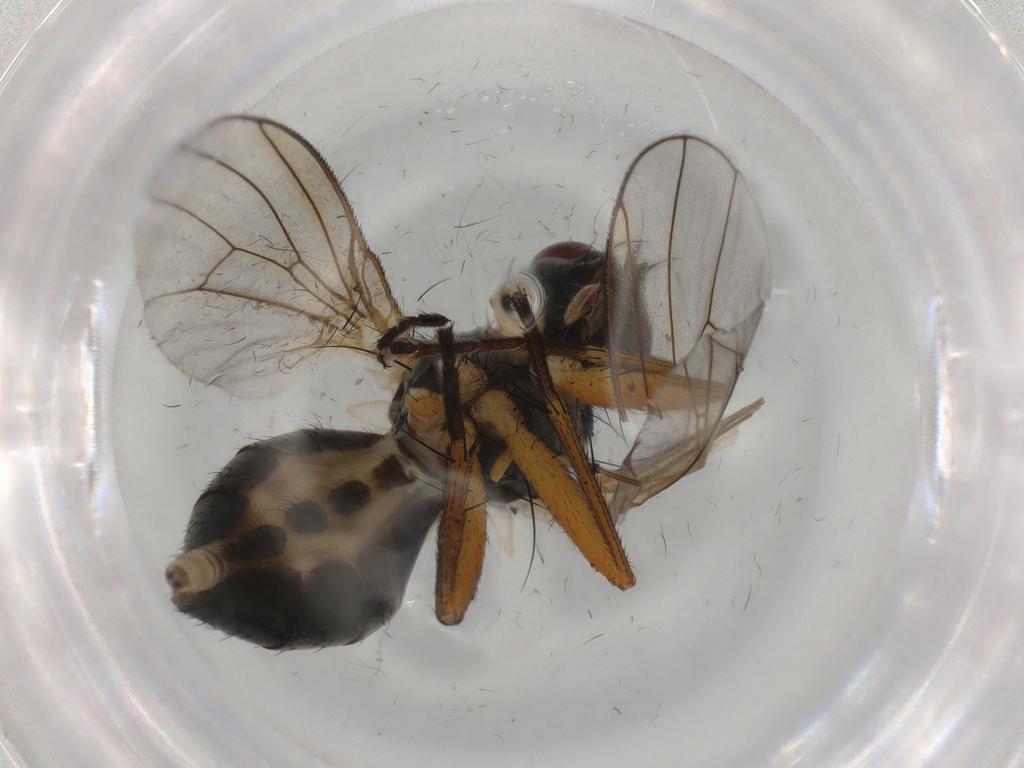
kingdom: Animalia
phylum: Arthropoda
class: Insecta
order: Diptera
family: Muscidae
